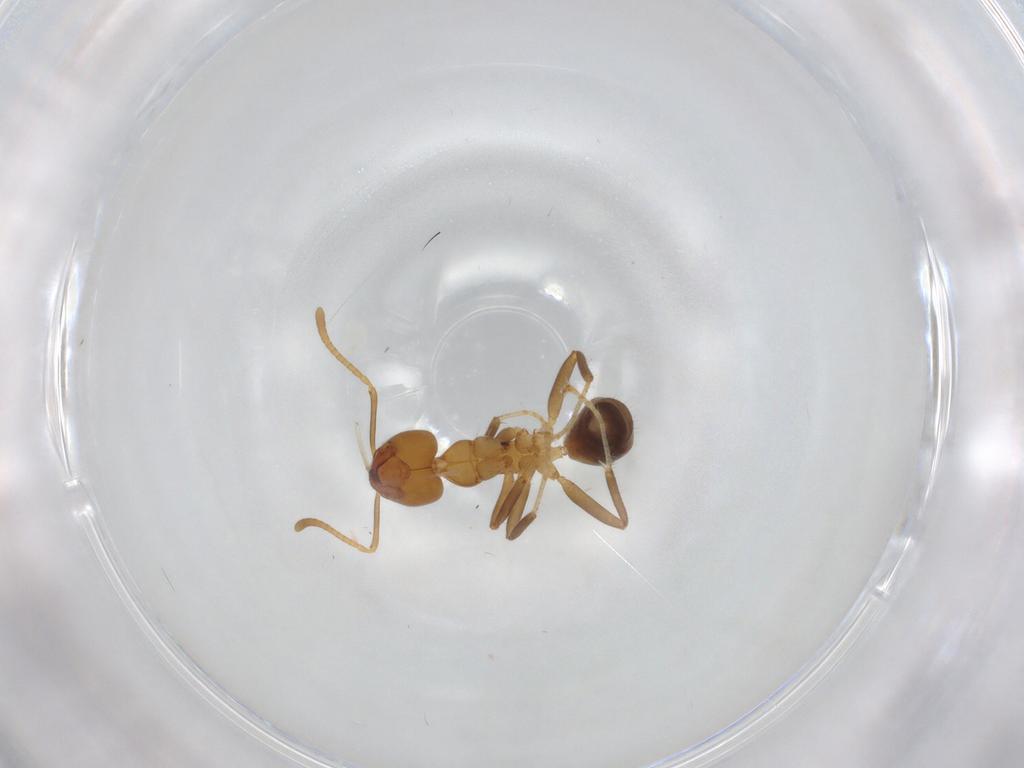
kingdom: Animalia
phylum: Arthropoda
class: Insecta
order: Hymenoptera
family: Formicidae
